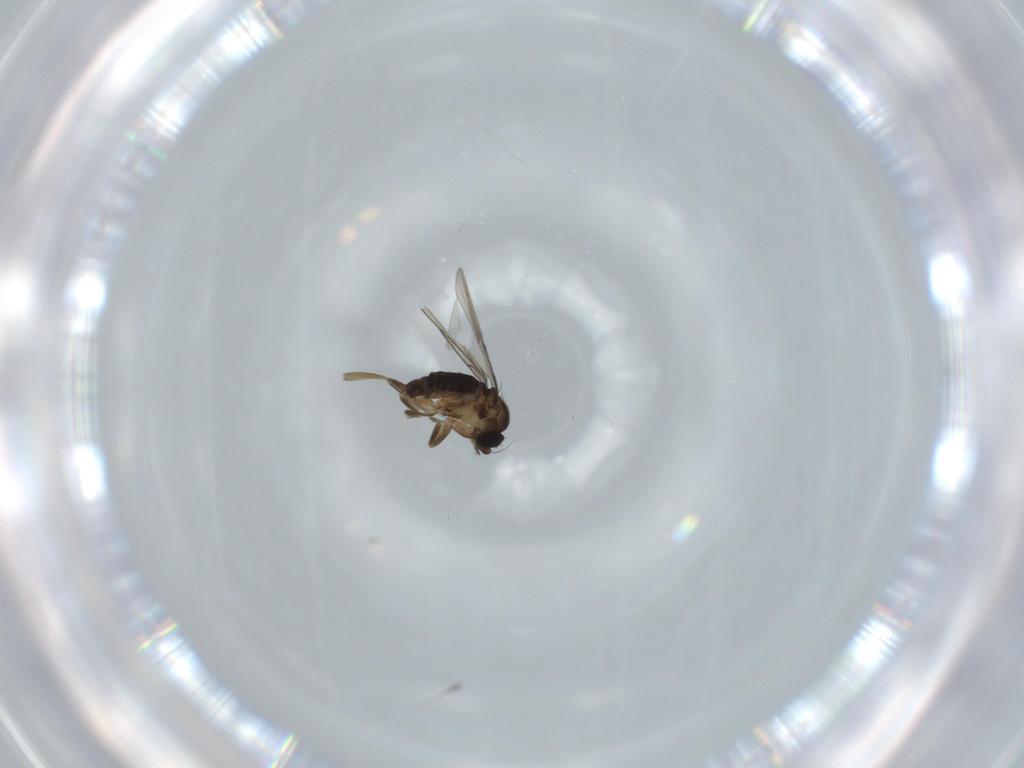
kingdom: Animalia
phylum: Arthropoda
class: Insecta
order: Diptera
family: Phoridae
